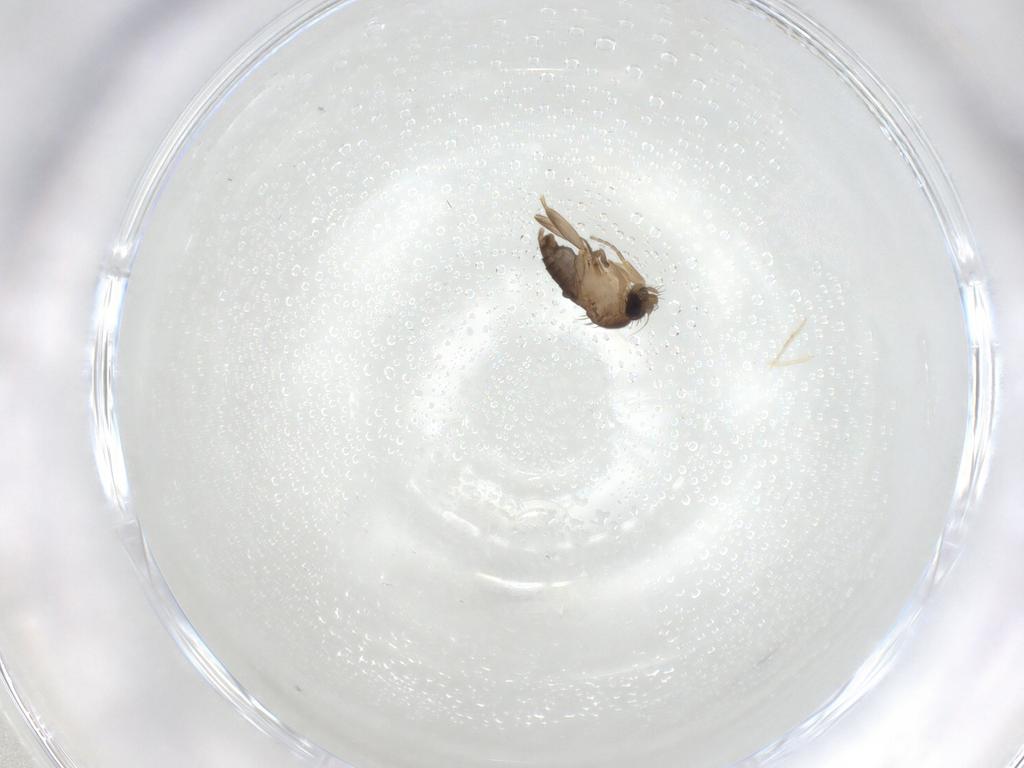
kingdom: Animalia
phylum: Arthropoda
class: Insecta
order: Diptera
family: Phoridae
